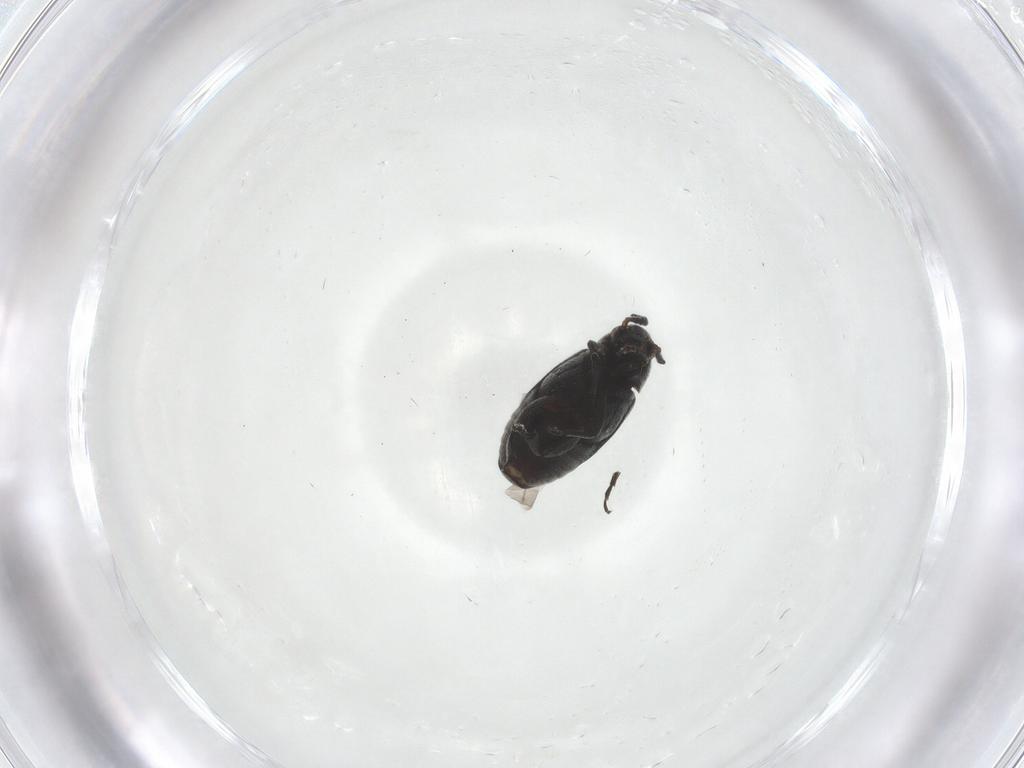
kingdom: Animalia
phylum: Arthropoda
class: Insecta
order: Coleoptera
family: Chrysomelidae
